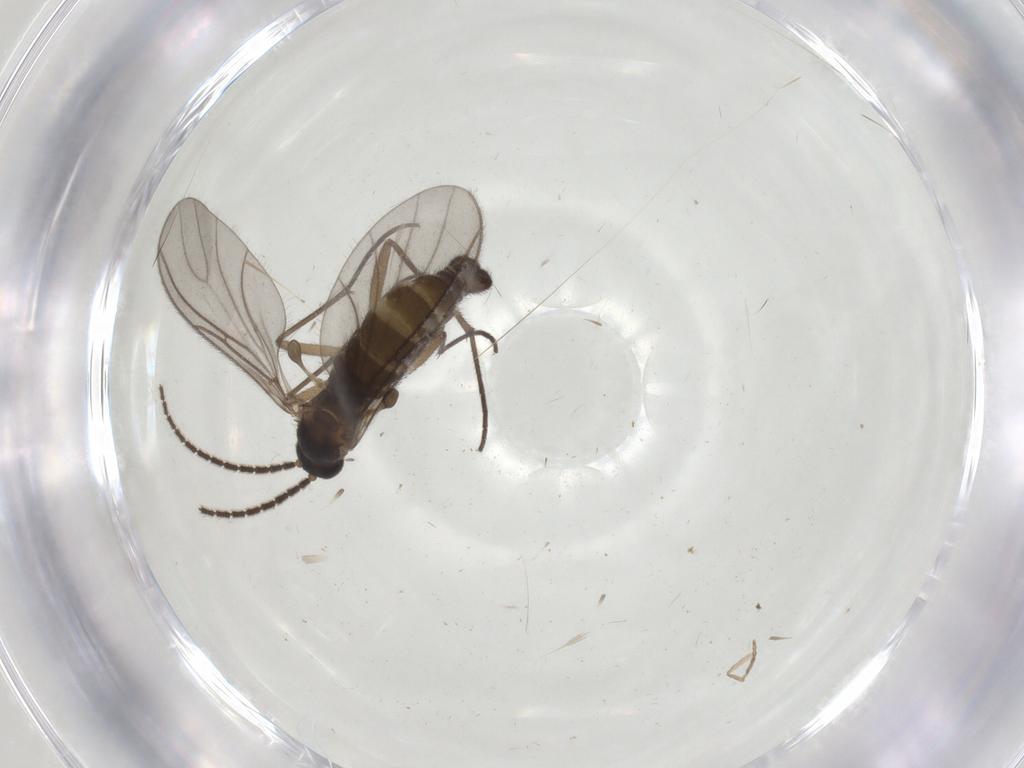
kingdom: Animalia
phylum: Arthropoda
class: Insecta
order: Diptera
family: Sciaridae
